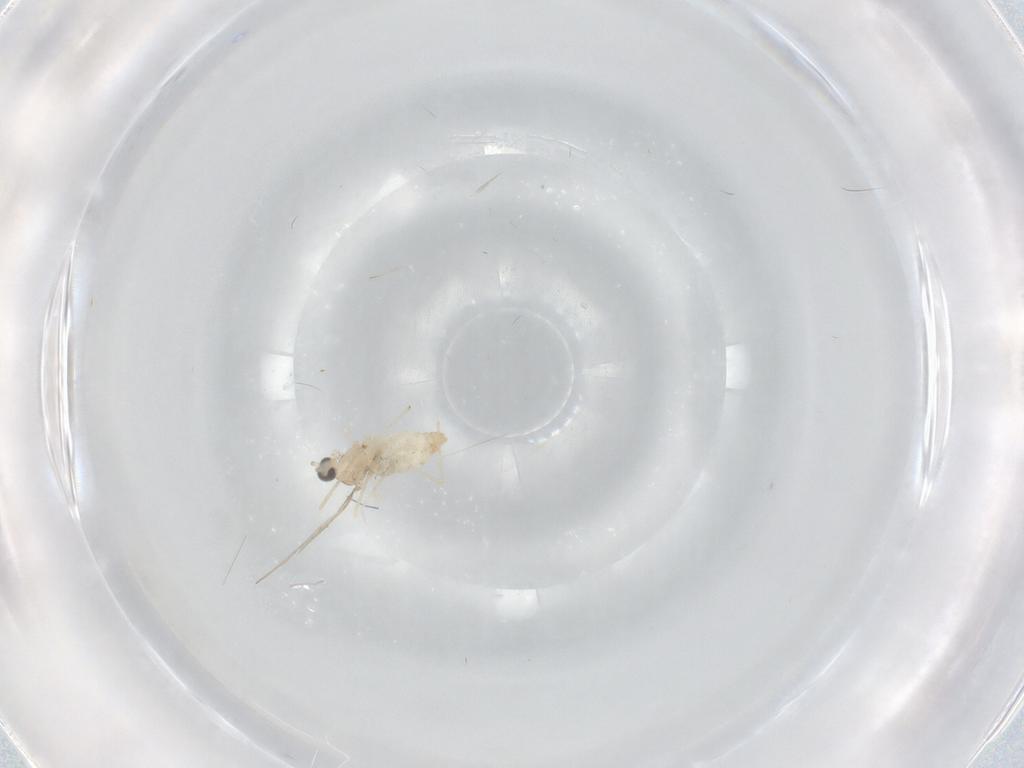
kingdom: Animalia
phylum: Arthropoda
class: Insecta
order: Diptera
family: Cecidomyiidae
